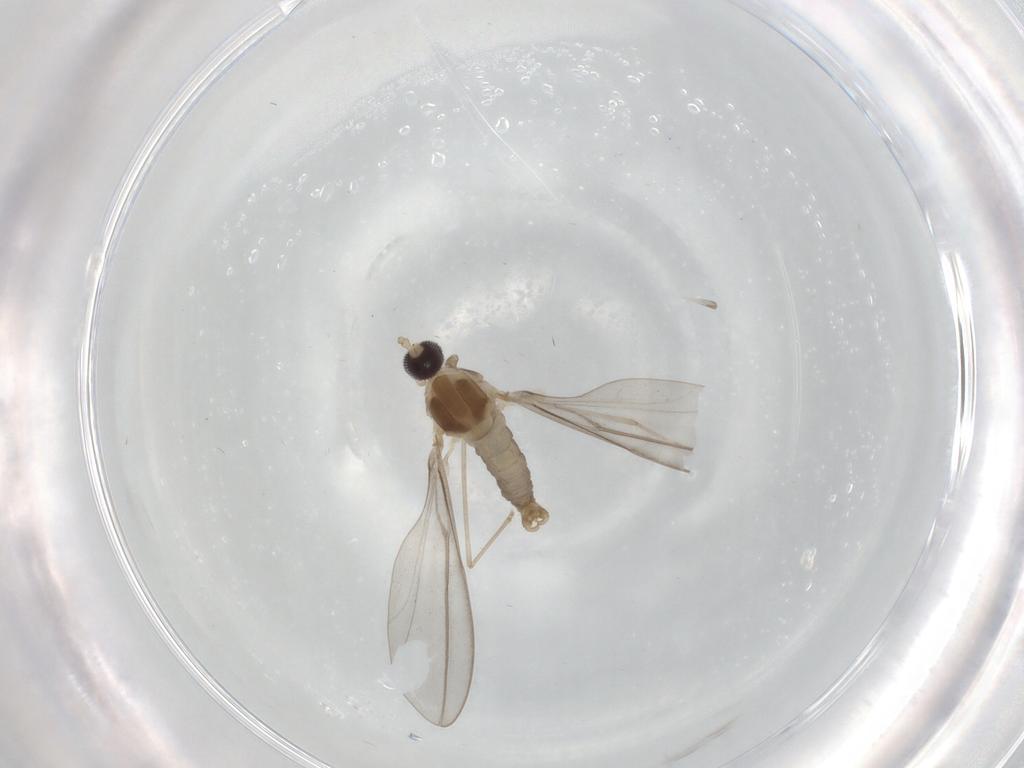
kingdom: Animalia
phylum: Arthropoda
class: Insecta
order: Diptera
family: Cecidomyiidae
